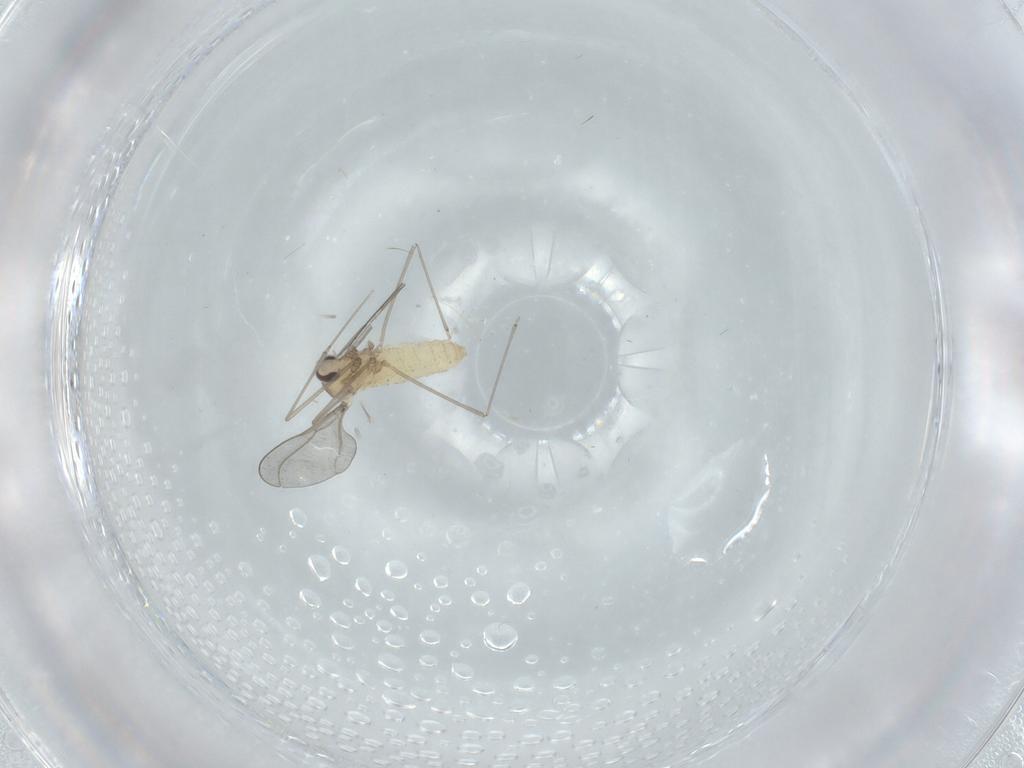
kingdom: Animalia
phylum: Arthropoda
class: Insecta
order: Diptera
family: Cecidomyiidae
